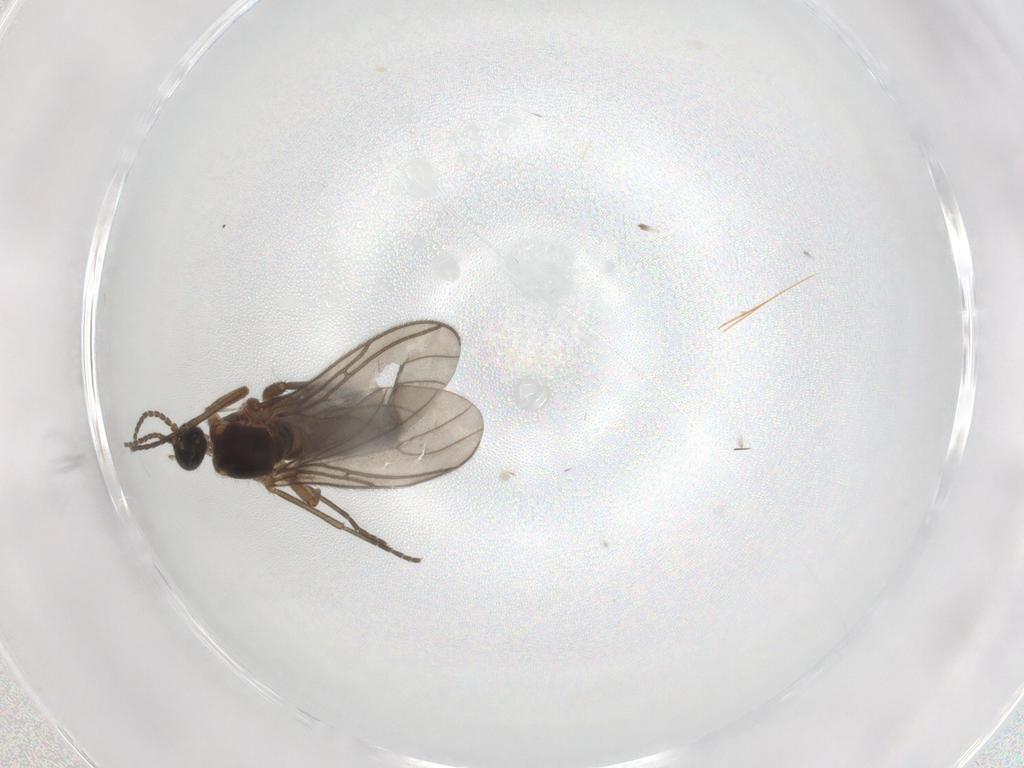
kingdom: Animalia
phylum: Arthropoda
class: Insecta
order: Diptera
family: Sciaridae
